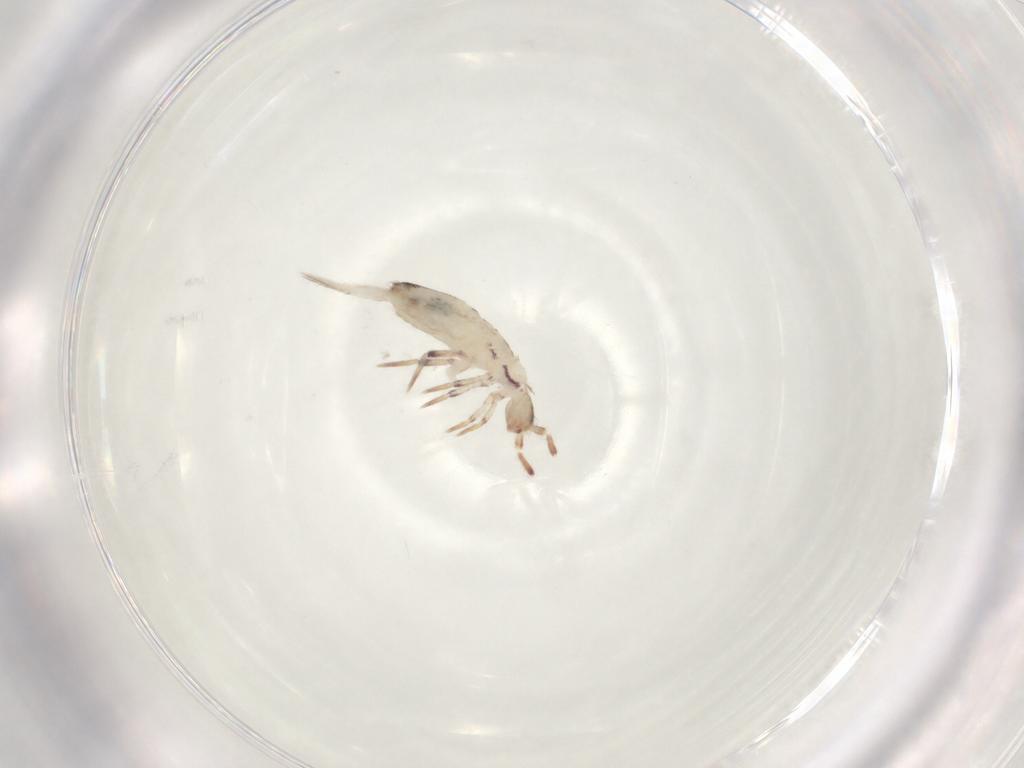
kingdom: Animalia
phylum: Arthropoda
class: Collembola
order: Entomobryomorpha
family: Entomobryidae
